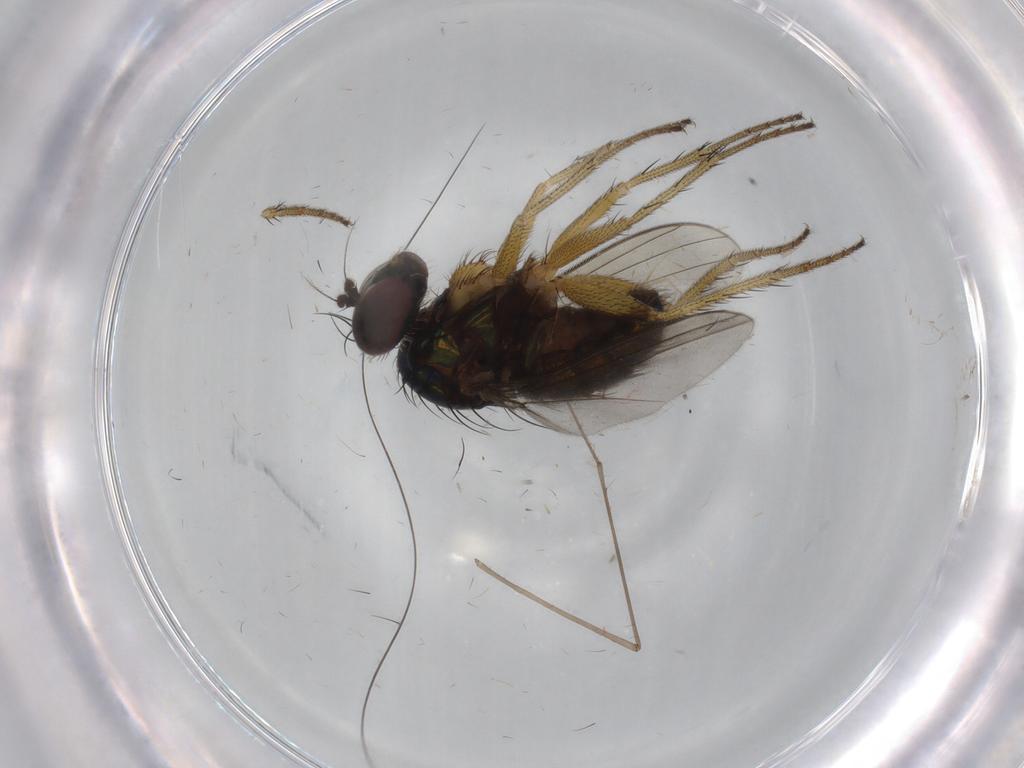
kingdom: Animalia
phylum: Arthropoda
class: Insecta
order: Diptera
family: Dolichopodidae
